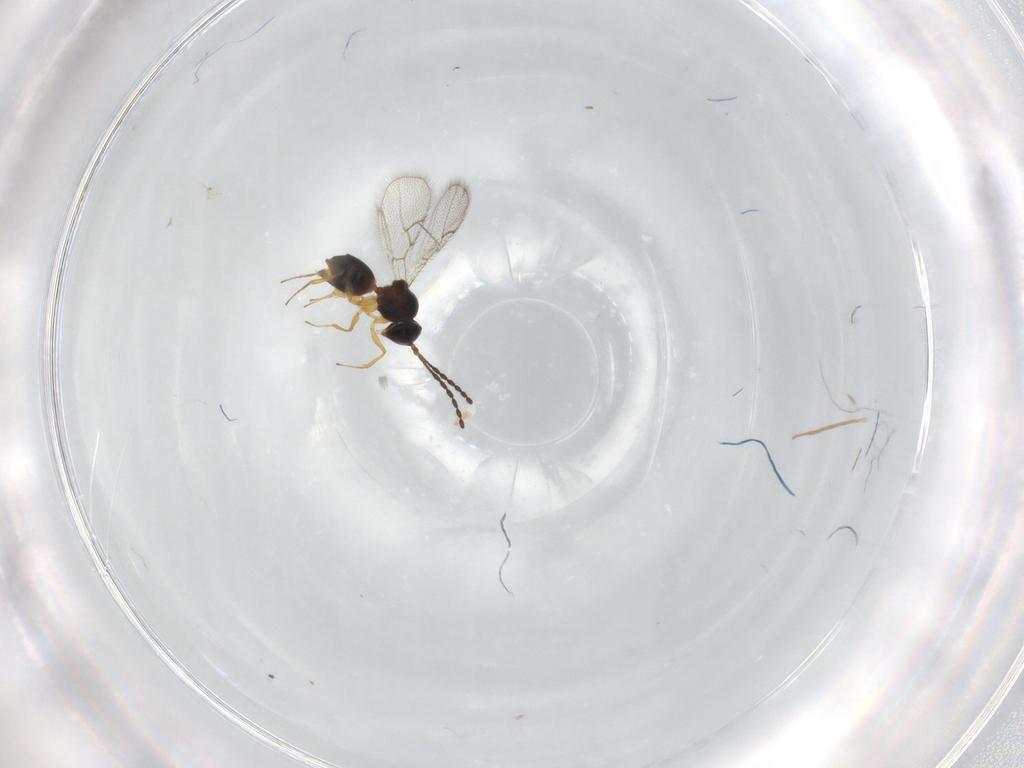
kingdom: Animalia
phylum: Arthropoda
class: Insecta
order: Hymenoptera
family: Figitidae
